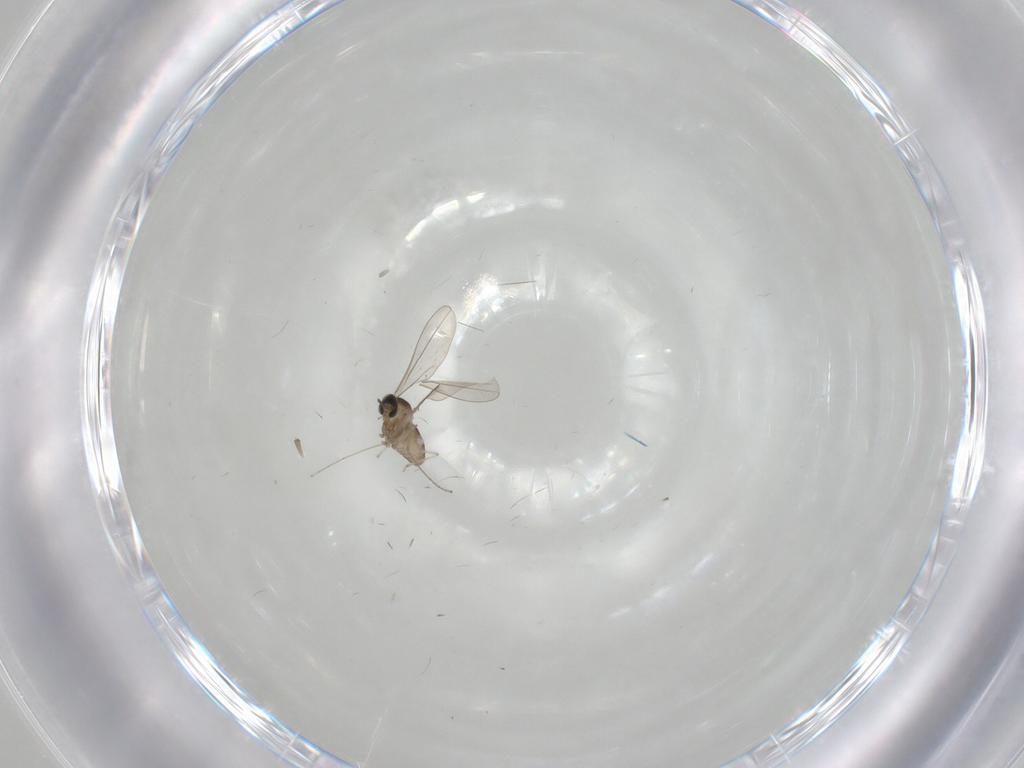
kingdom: Animalia
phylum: Arthropoda
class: Insecta
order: Diptera
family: Cecidomyiidae
